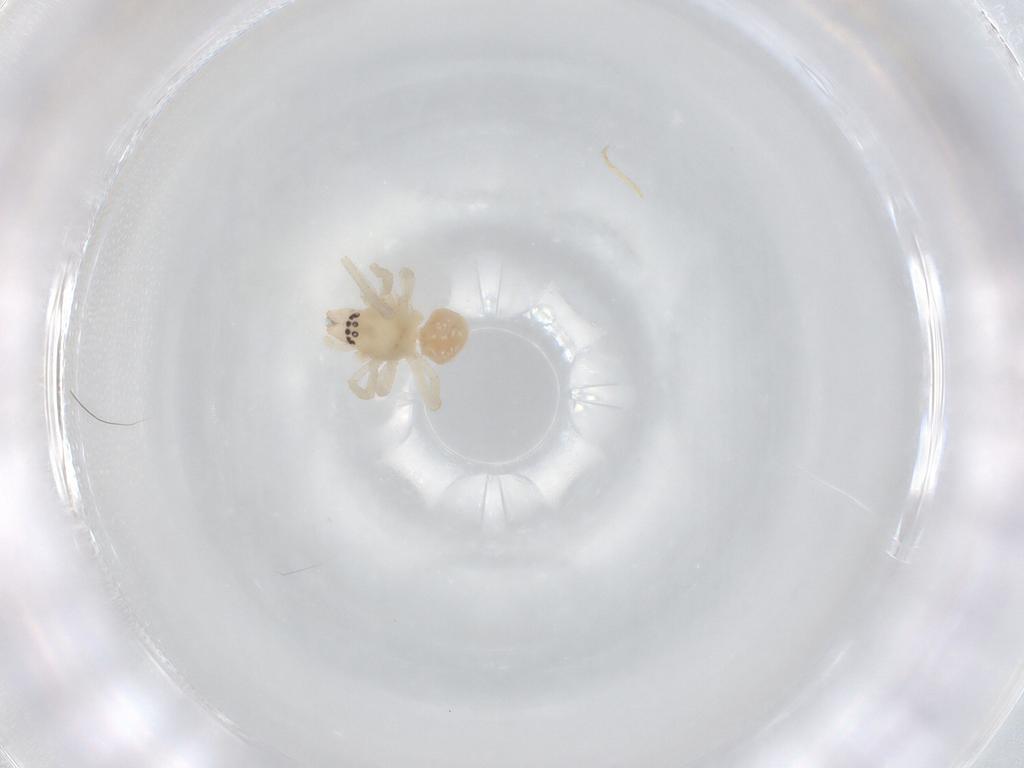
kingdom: Animalia
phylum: Arthropoda
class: Arachnida
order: Araneae
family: Cheiracanthiidae
